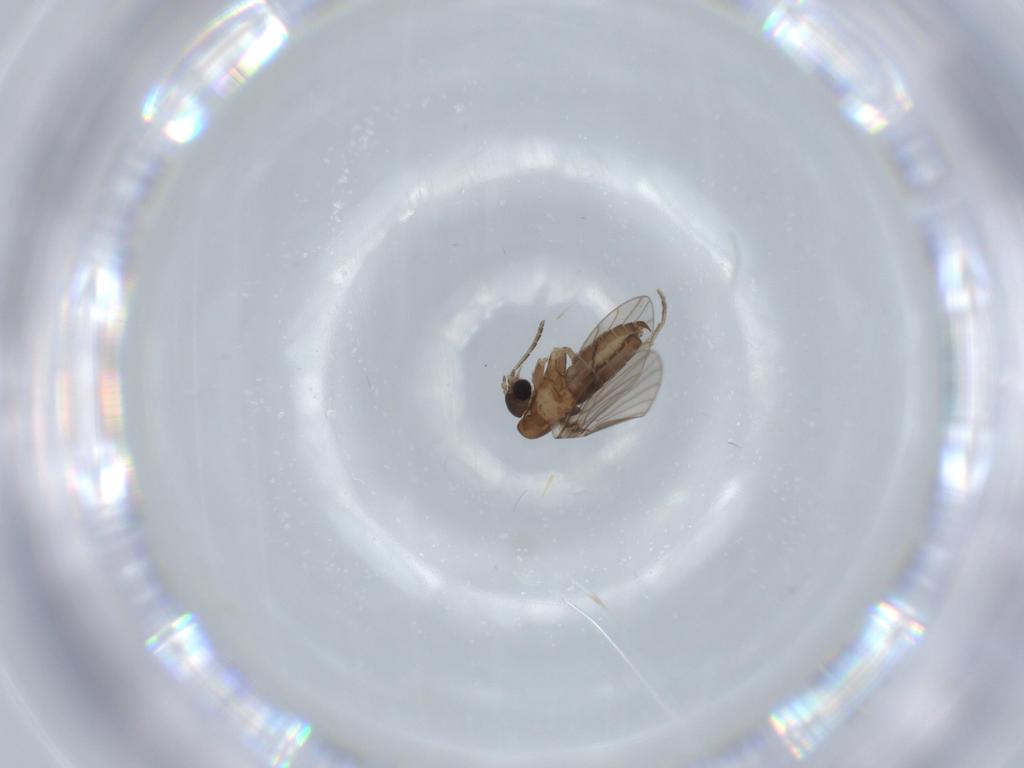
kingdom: Animalia
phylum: Arthropoda
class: Insecta
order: Diptera
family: Psychodidae
